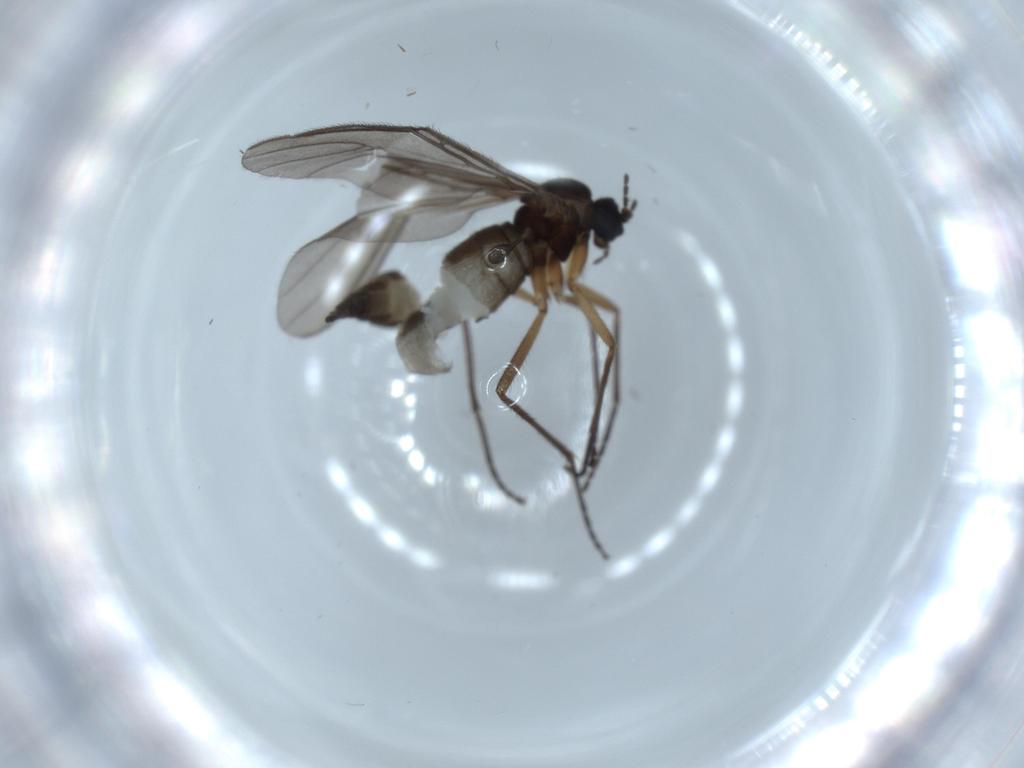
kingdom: Animalia
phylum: Arthropoda
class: Insecta
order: Diptera
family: Sciaridae
